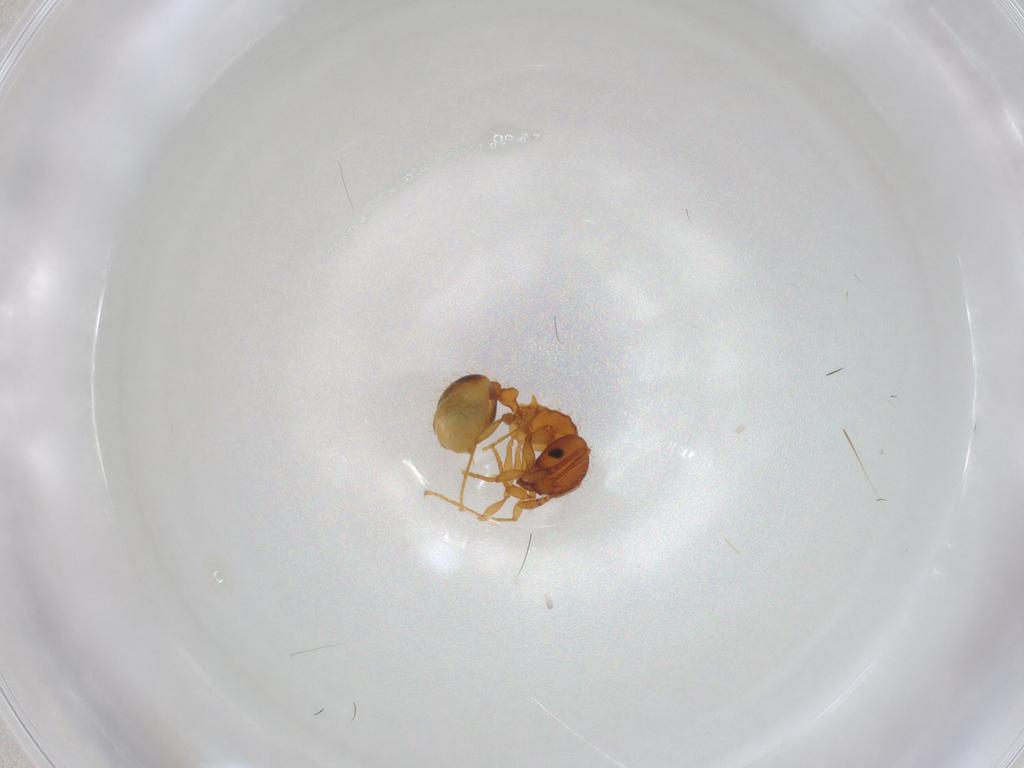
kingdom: Animalia
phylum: Arthropoda
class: Insecta
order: Hymenoptera
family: Formicidae
